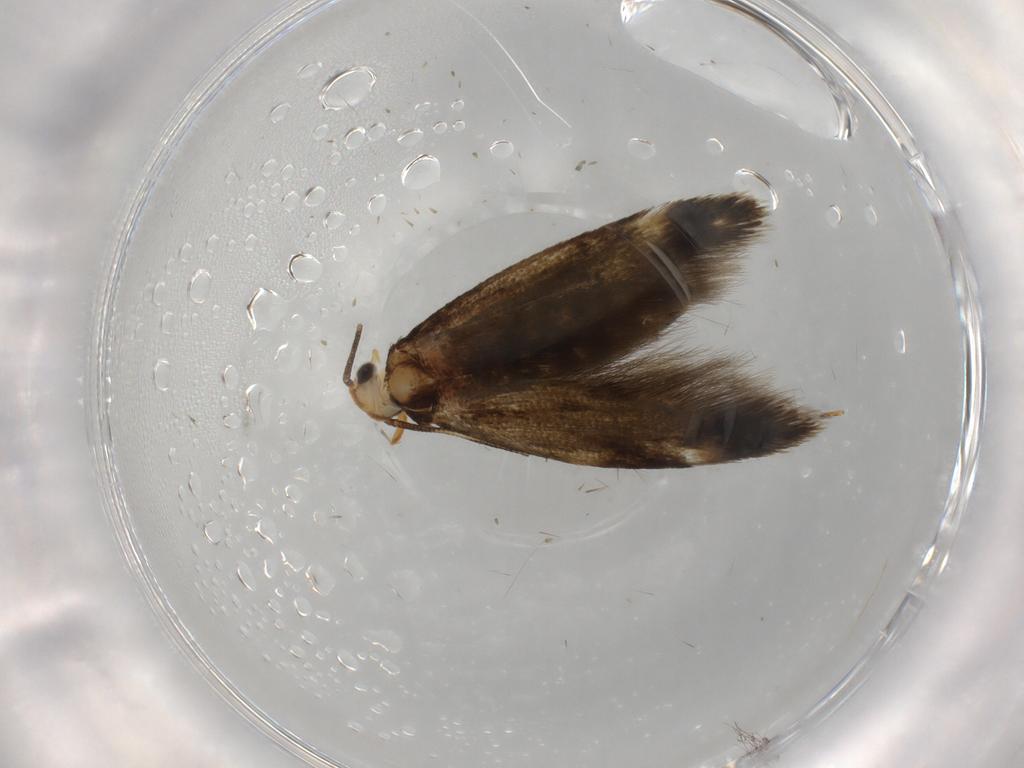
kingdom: Animalia
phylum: Arthropoda
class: Insecta
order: Lepidoptera
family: Tineidae
